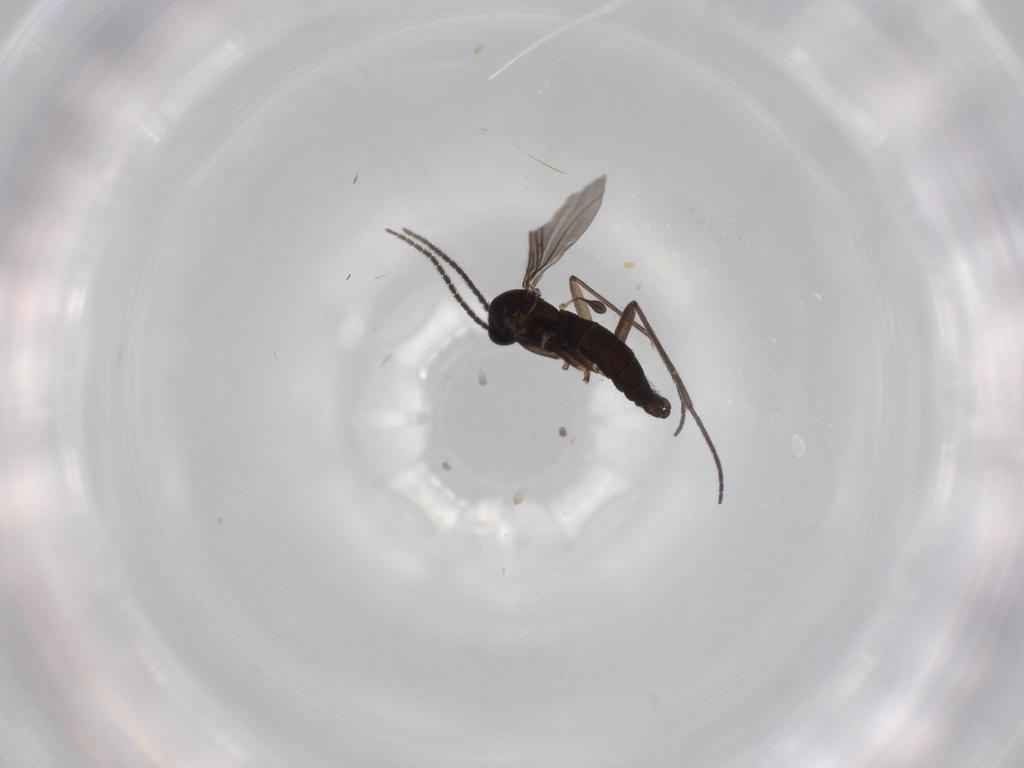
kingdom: Animalia
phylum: Arthropoda
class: Insecta
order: Diptera
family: Sciaridae
